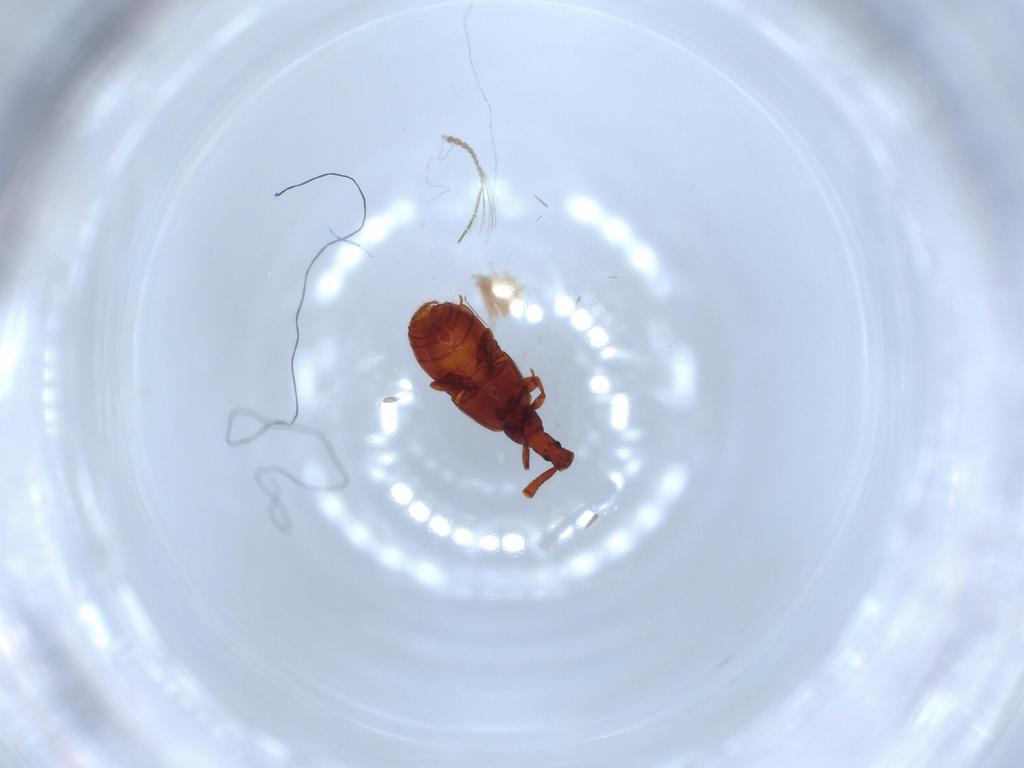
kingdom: Animalia
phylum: Arthropoda
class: Insecta
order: Coleoptera
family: Staphylinidae
